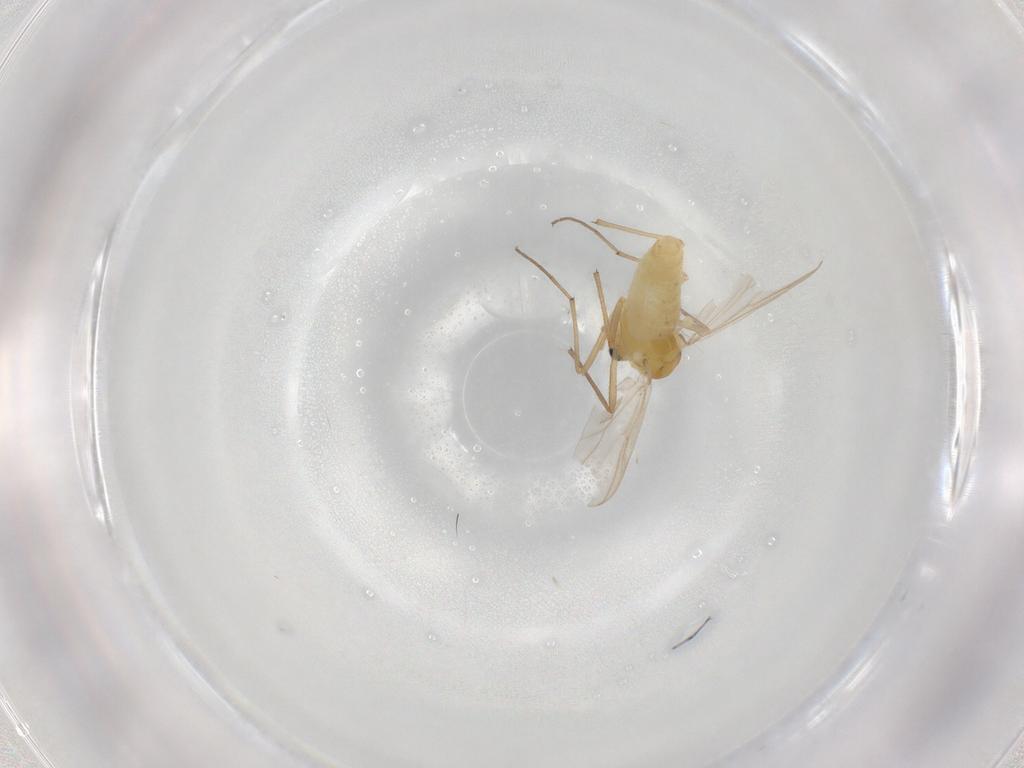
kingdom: Animalia
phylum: Arthropoda
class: Insecta
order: Diptera
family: Chironomidae
